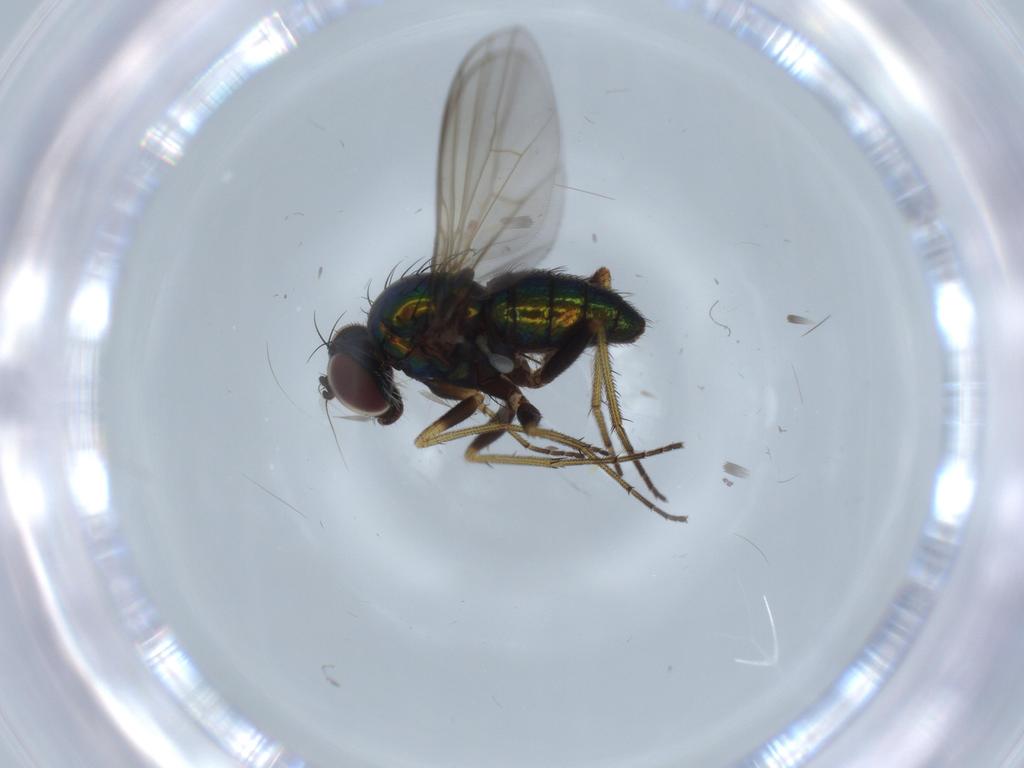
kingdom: Animalia
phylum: Arthropoda
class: Insecta
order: Diptera
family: Dolichopodidae
